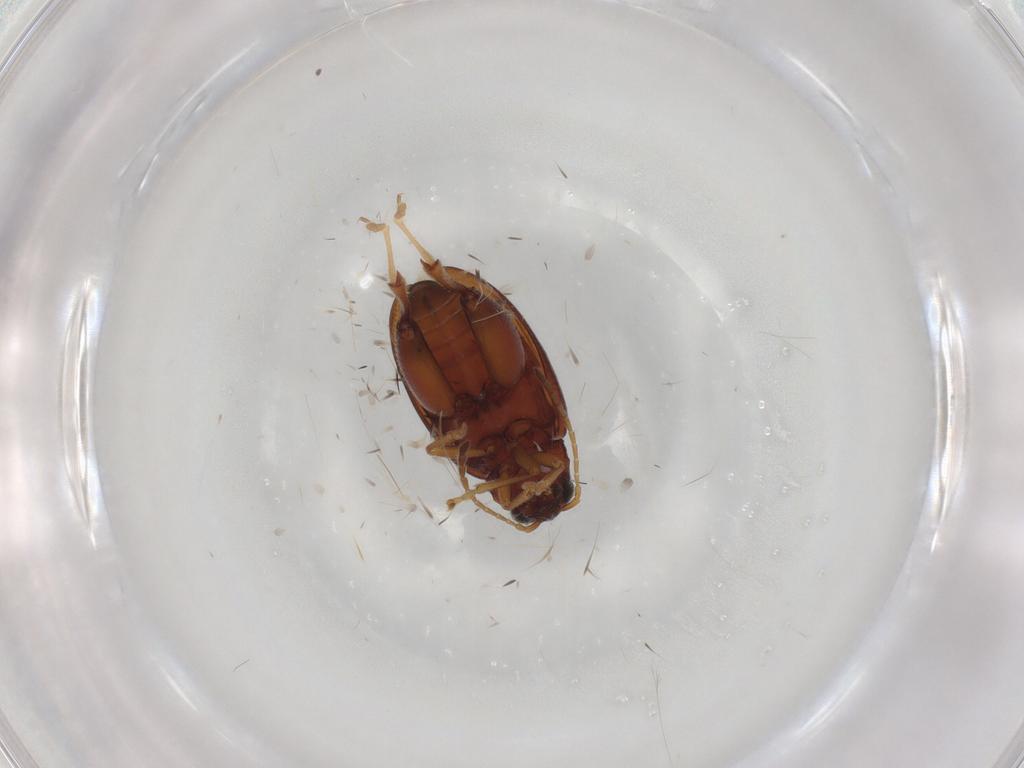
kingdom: Animalia
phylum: Arthropoda
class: Insecta
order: Coleoptera
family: Chrysomelidae
